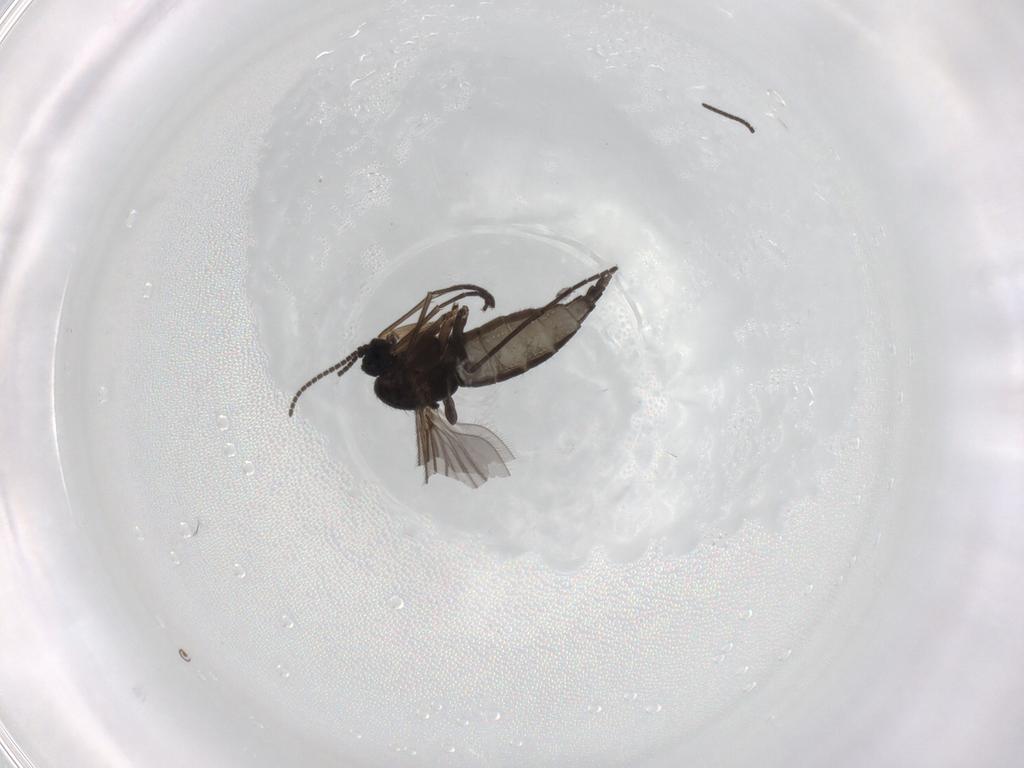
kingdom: Animalia
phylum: Arthropoda
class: Insecta
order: Diptera
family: Sciaridae
